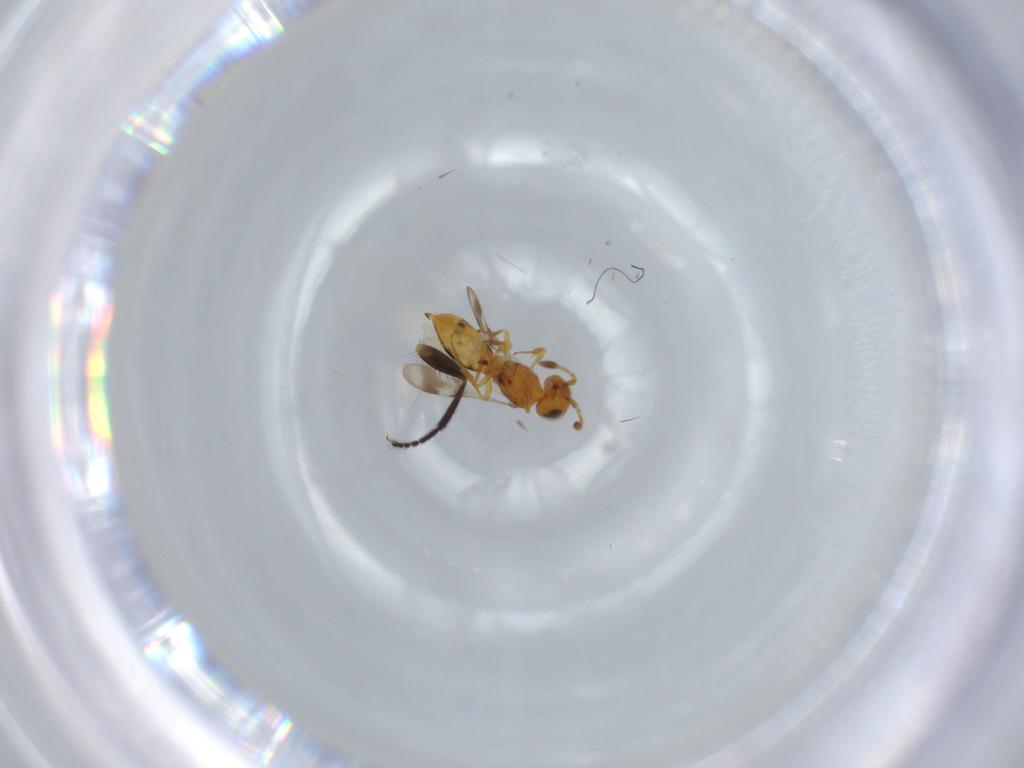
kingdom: Animalia
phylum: Arthropoda
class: Insecta
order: Hymenoptera
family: Scelionidae
